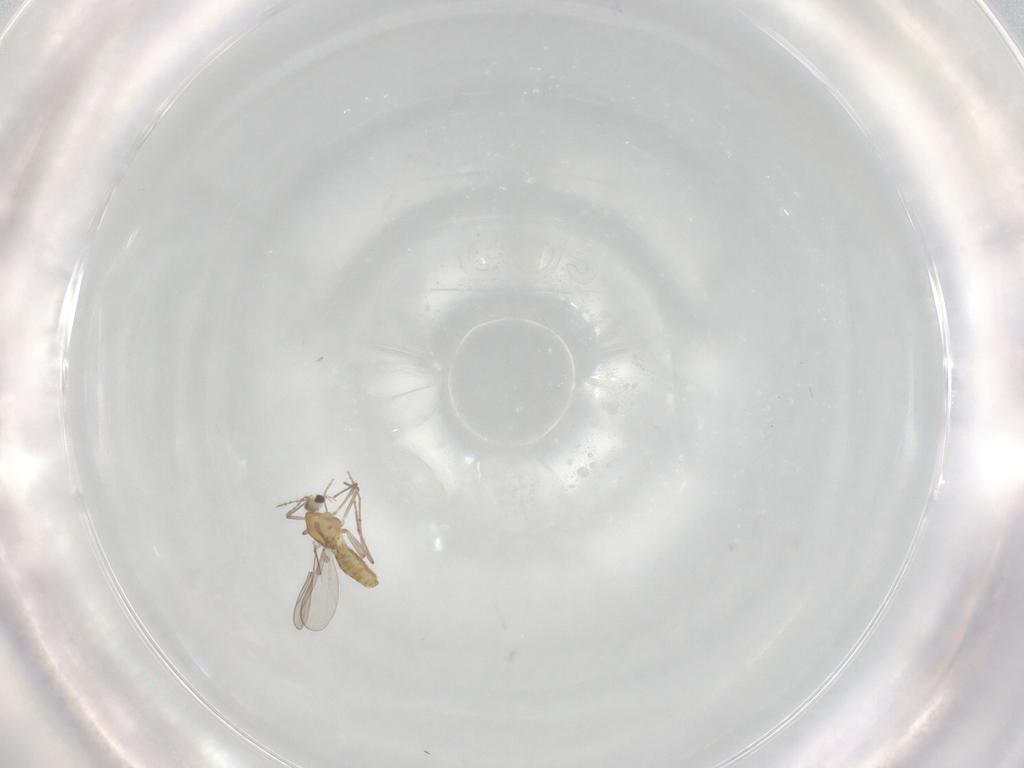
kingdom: Animalia
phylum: Arthropoda
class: Insecta
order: Diptera
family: Chironomidae
